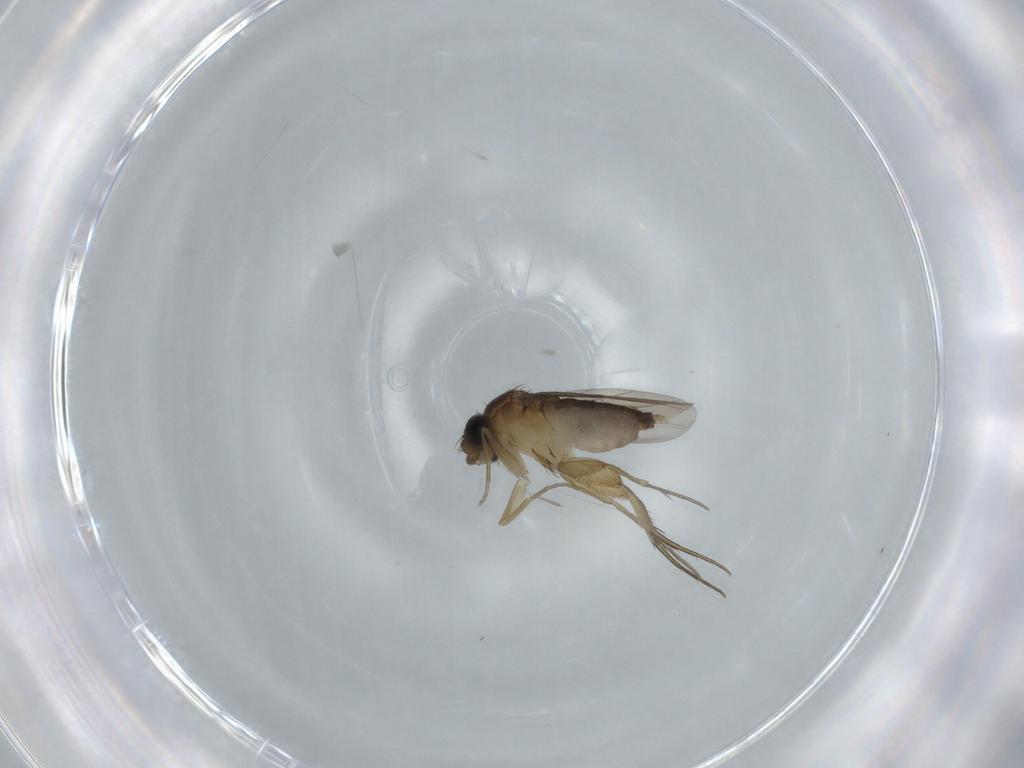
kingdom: Animalia
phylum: Arthropoda
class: Insecta
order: Diptera
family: Phoridae
